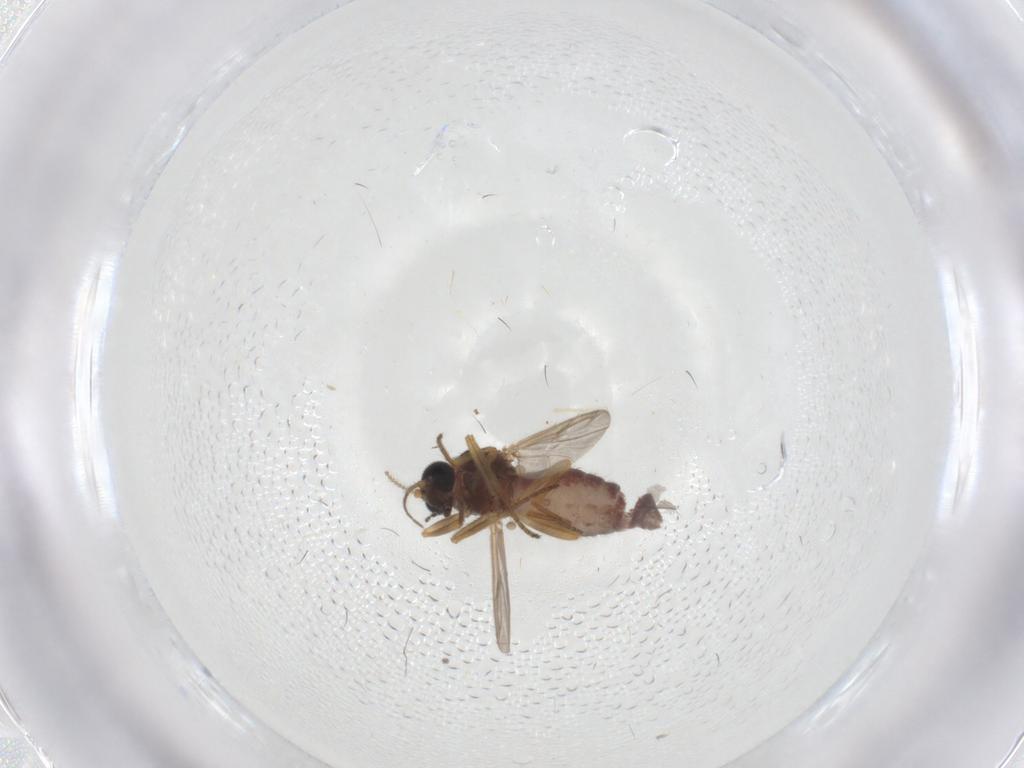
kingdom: Animalia
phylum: Arthropoda
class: Insecta
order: Diptera
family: Ceratopogonidae
